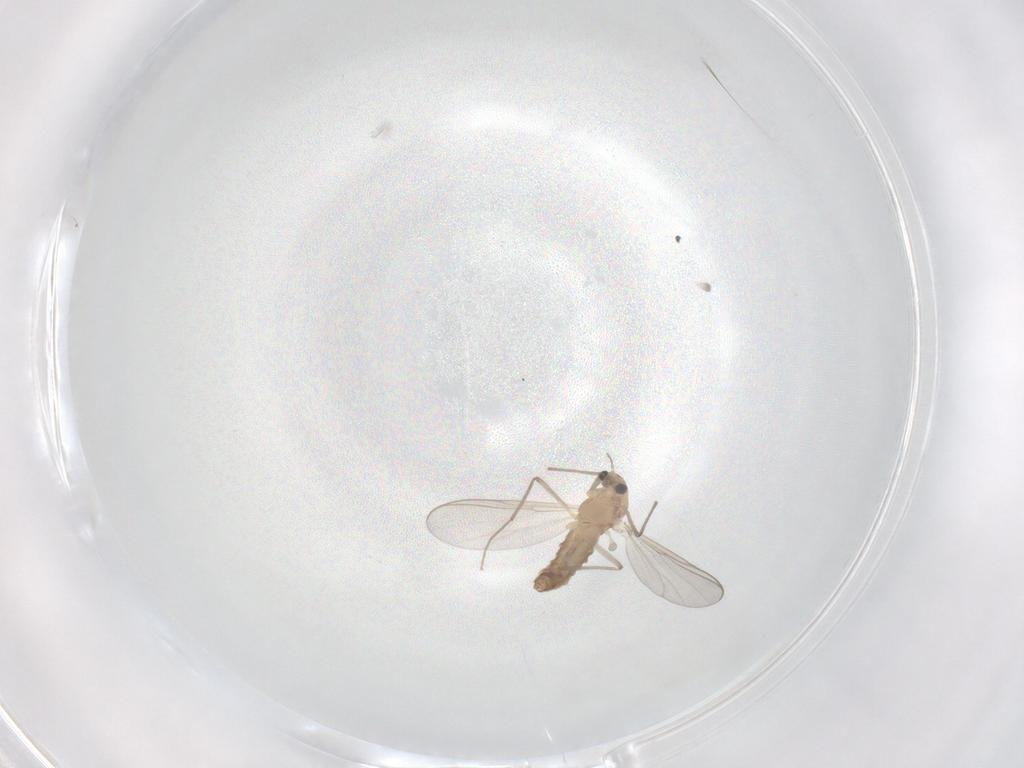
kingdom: Animalia
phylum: Arthropoda
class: Insecta
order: Diptera
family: Chironomidae
